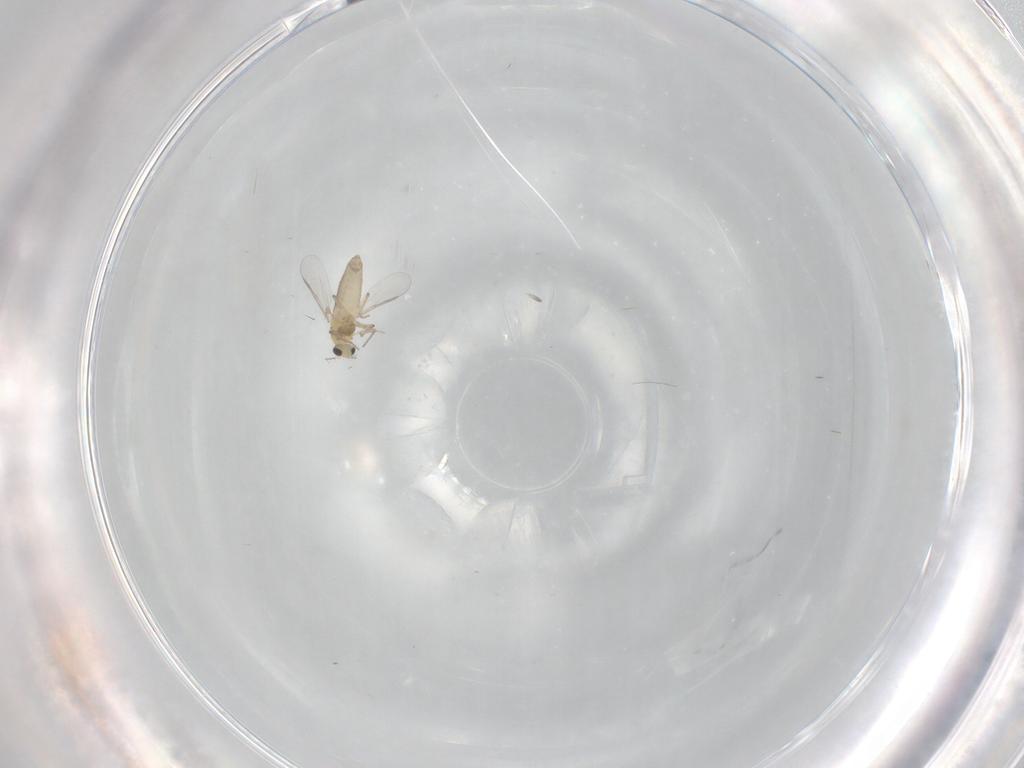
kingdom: Animalia
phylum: Arthropoda
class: Insecta
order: Diptera
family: Chironomidae
